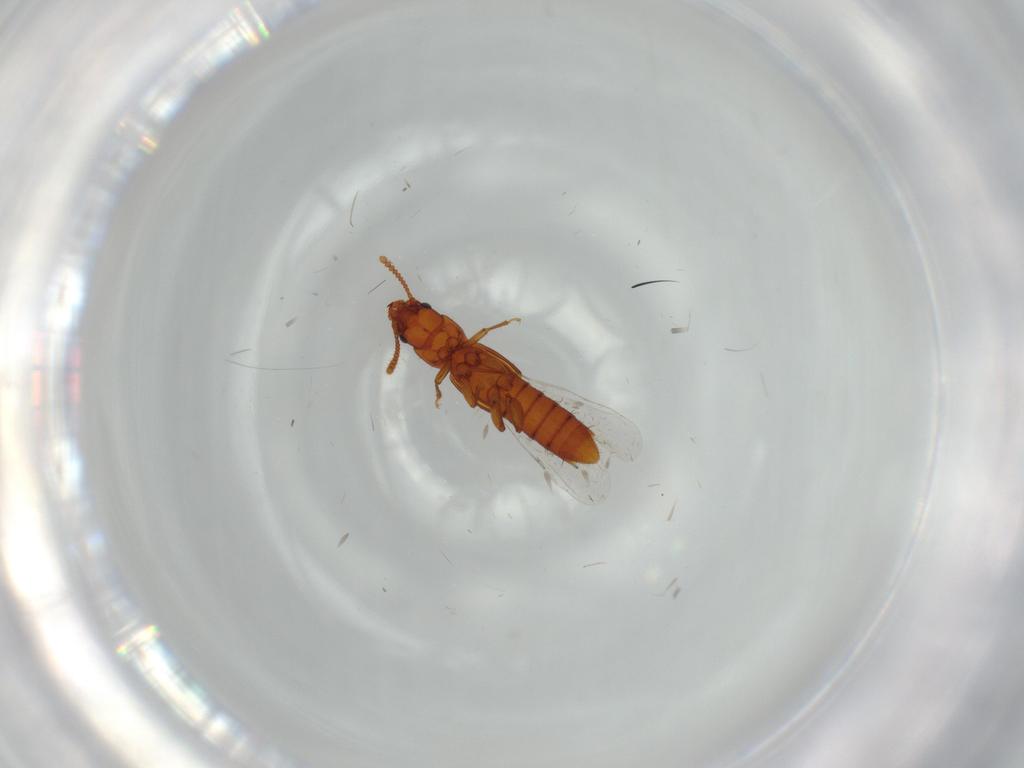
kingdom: Animalia
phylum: Arthropoda
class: Insecta
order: Coleoptera
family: Staphylinidae
